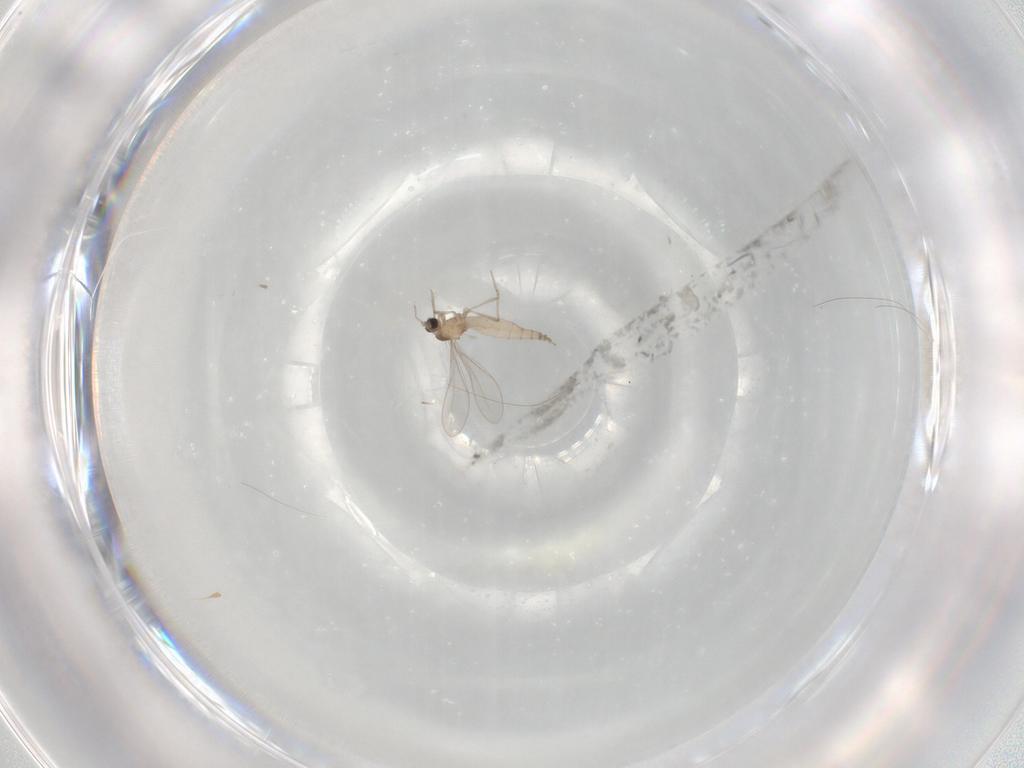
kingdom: Animalia
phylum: Arthropoda
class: Insecta
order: Diptera
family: Cecidomyiidae
